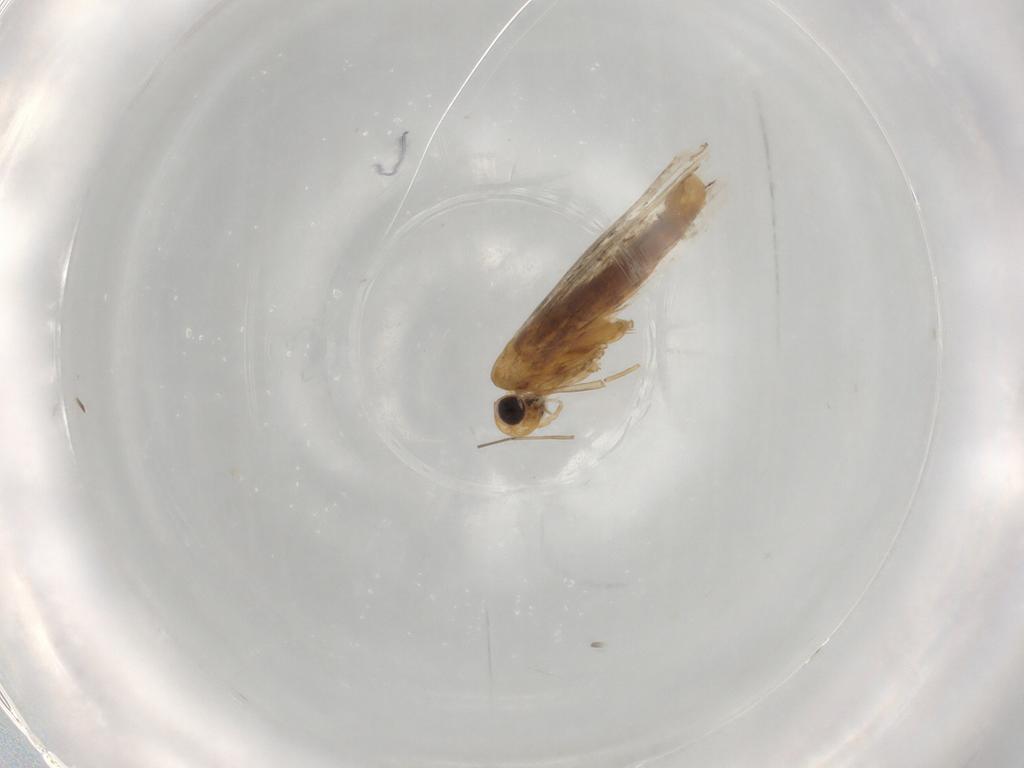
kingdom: Animalia
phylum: Arthropoda
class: Insecta
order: Lepidoptera
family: Gracillariidae
